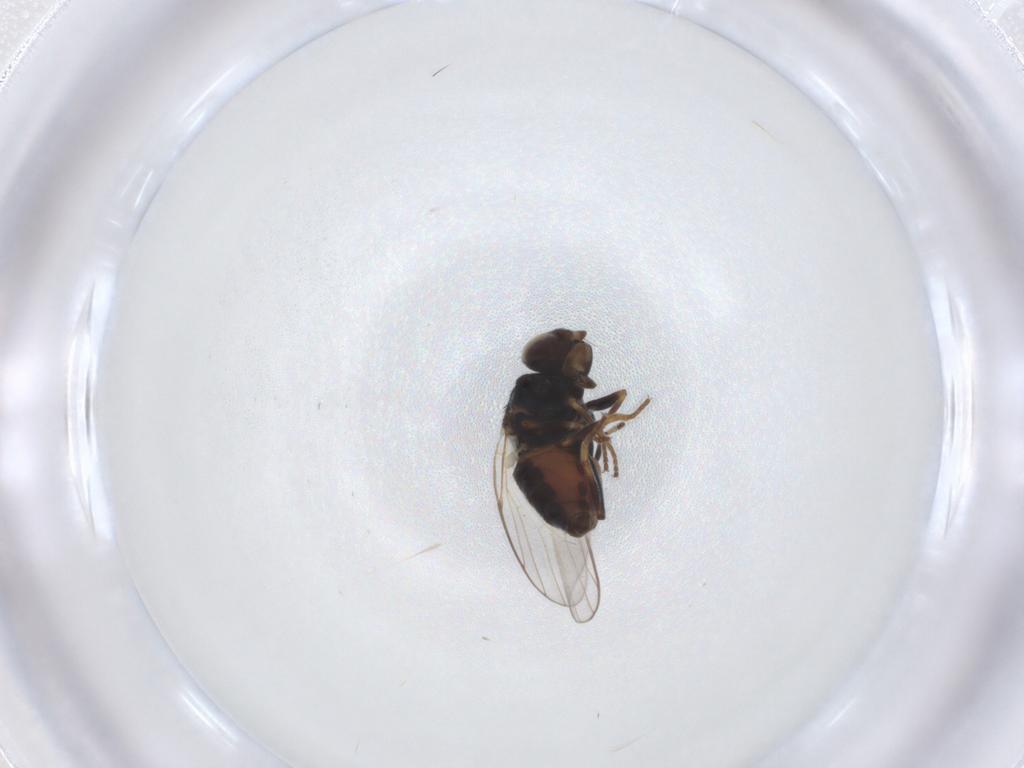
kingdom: Animalia
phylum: Arthropoda
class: Insecta
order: Diptera
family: Chloropidae
